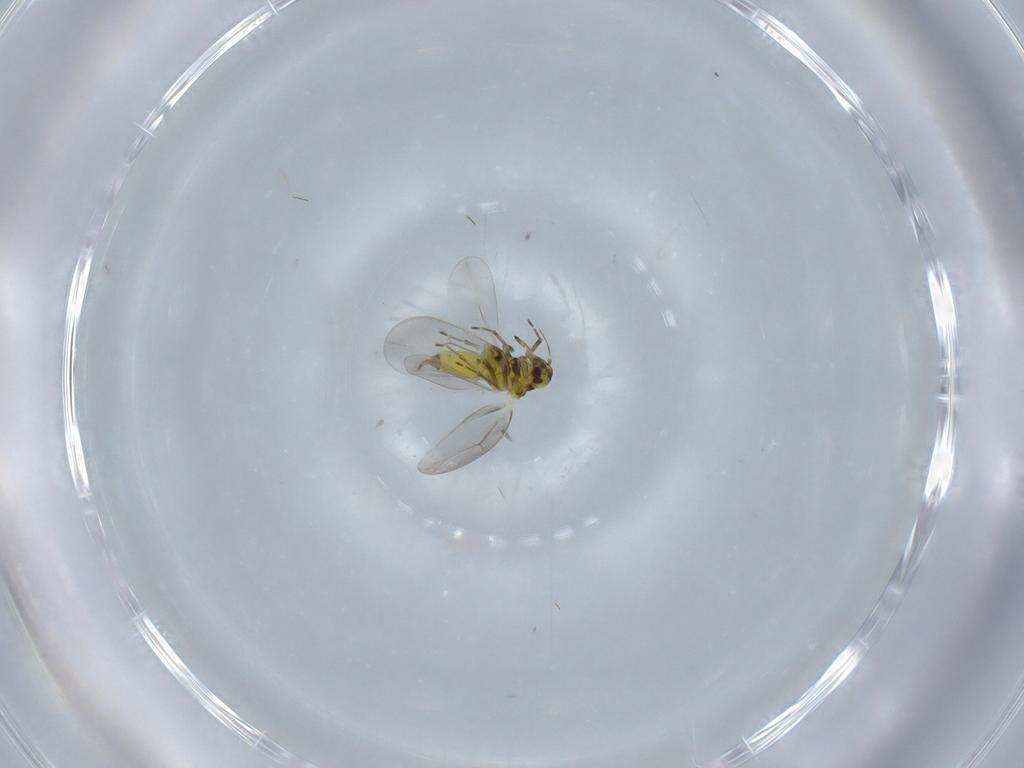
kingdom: Animalia
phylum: Arthropoda
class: Insecta
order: Hemiptera
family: Aleyrodidae
